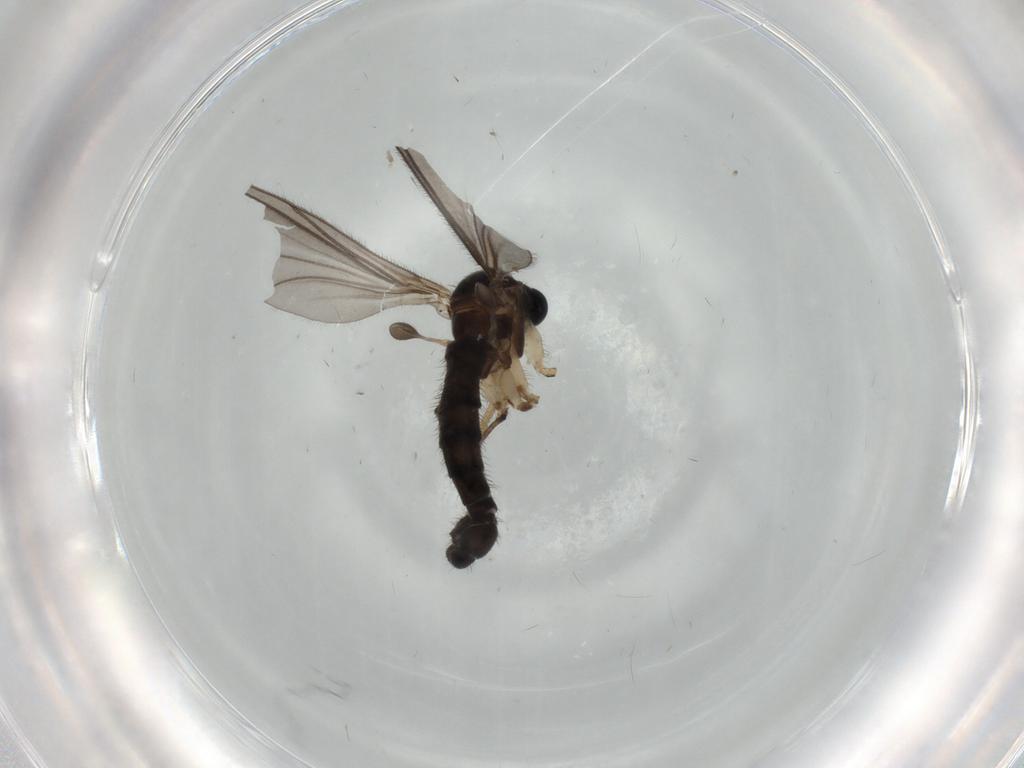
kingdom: Animalia
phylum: Arthropoda
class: Insecta
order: Diptera
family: Sciaridae
